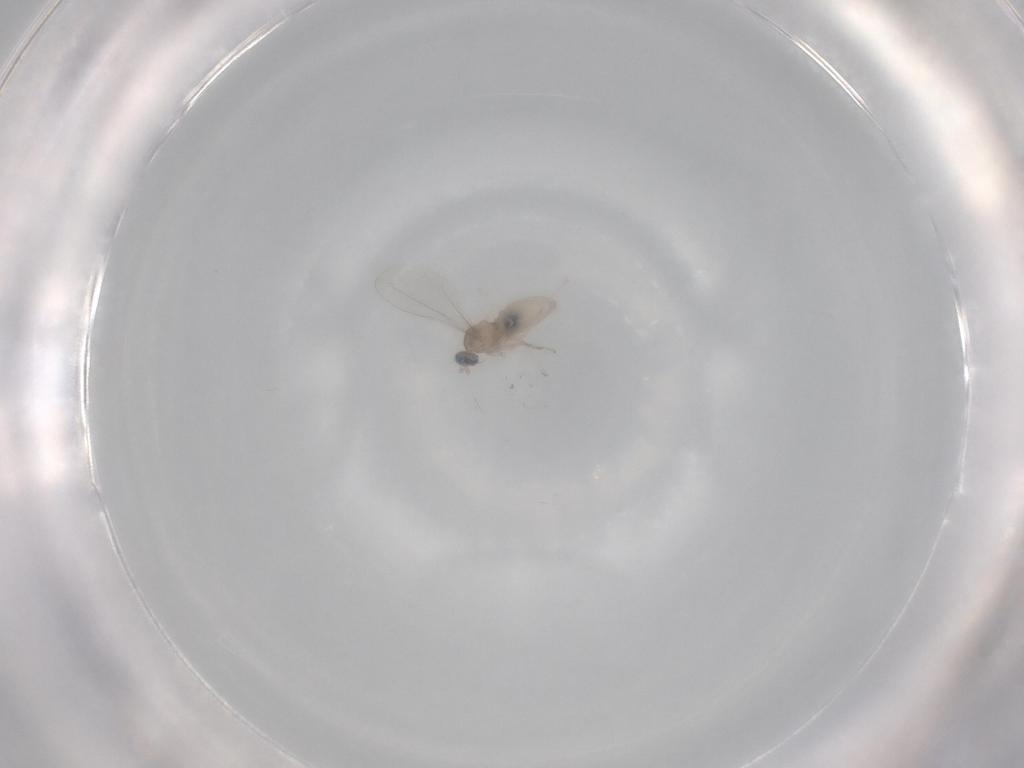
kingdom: Animalia
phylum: Arthropoda
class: Insecta
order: Diptera
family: Cecidomyiidae
